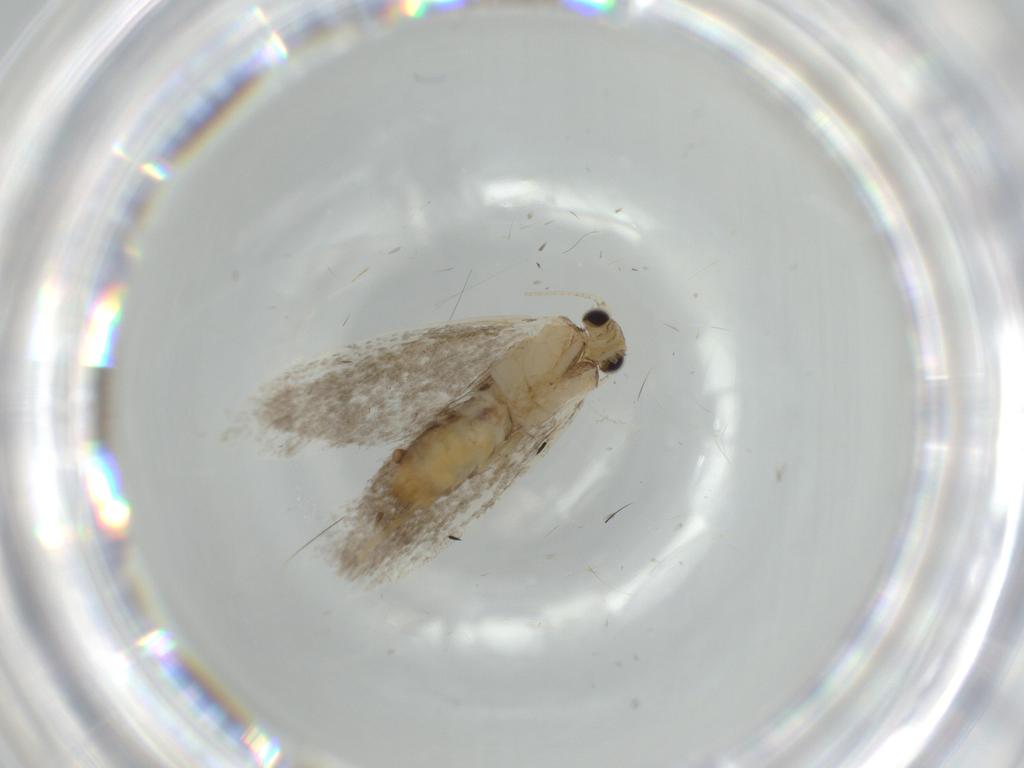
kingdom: Animalia
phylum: Arthropoda
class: Insecta
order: Lepidoptera
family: Tineidae
